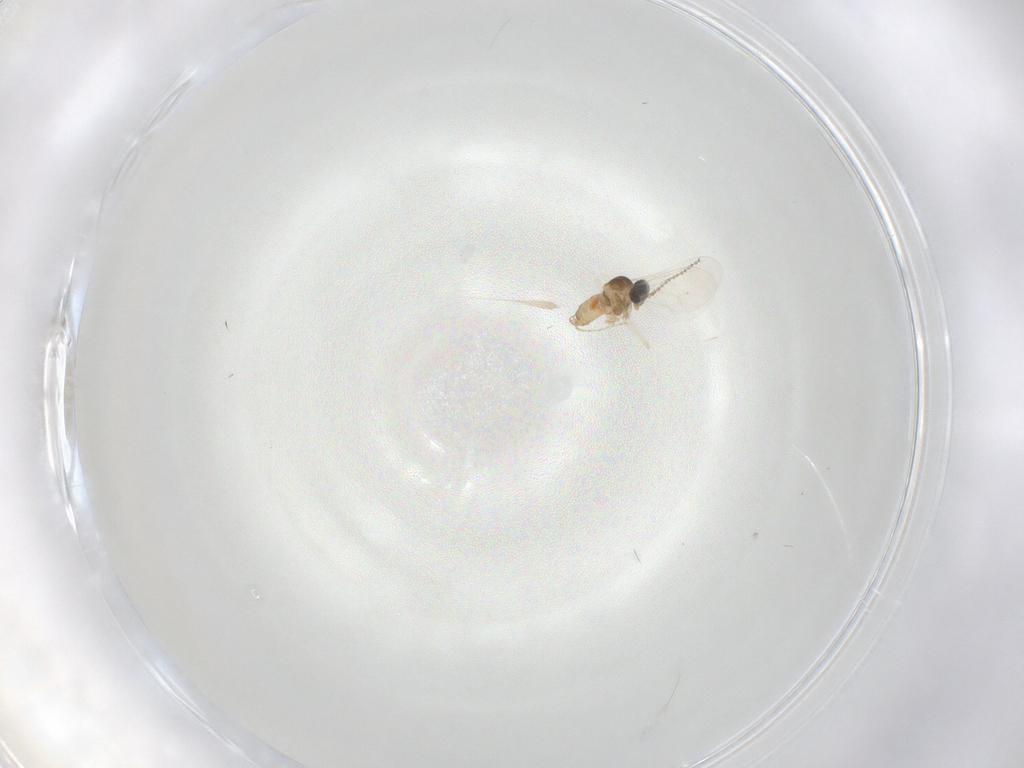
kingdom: Animalia
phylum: Arthropoda
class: Insecta
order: Diptera
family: Cecidomyiidae
